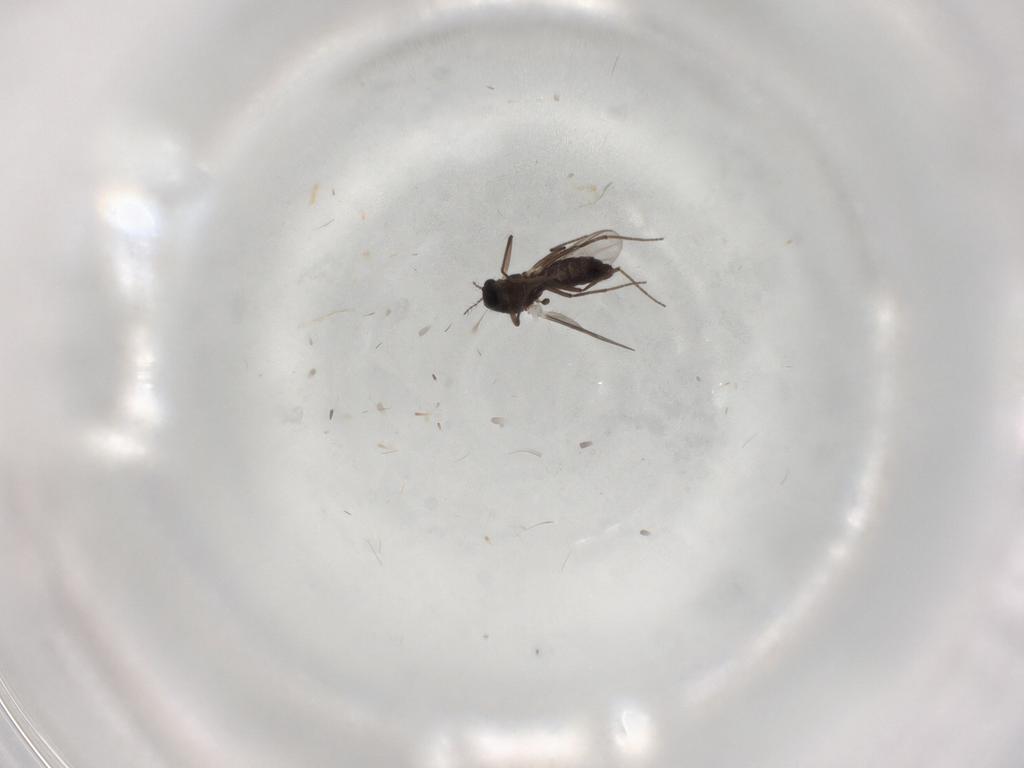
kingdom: Animalia
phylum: Arthropoda
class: Insecta
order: Diptera
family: Chironomidae
